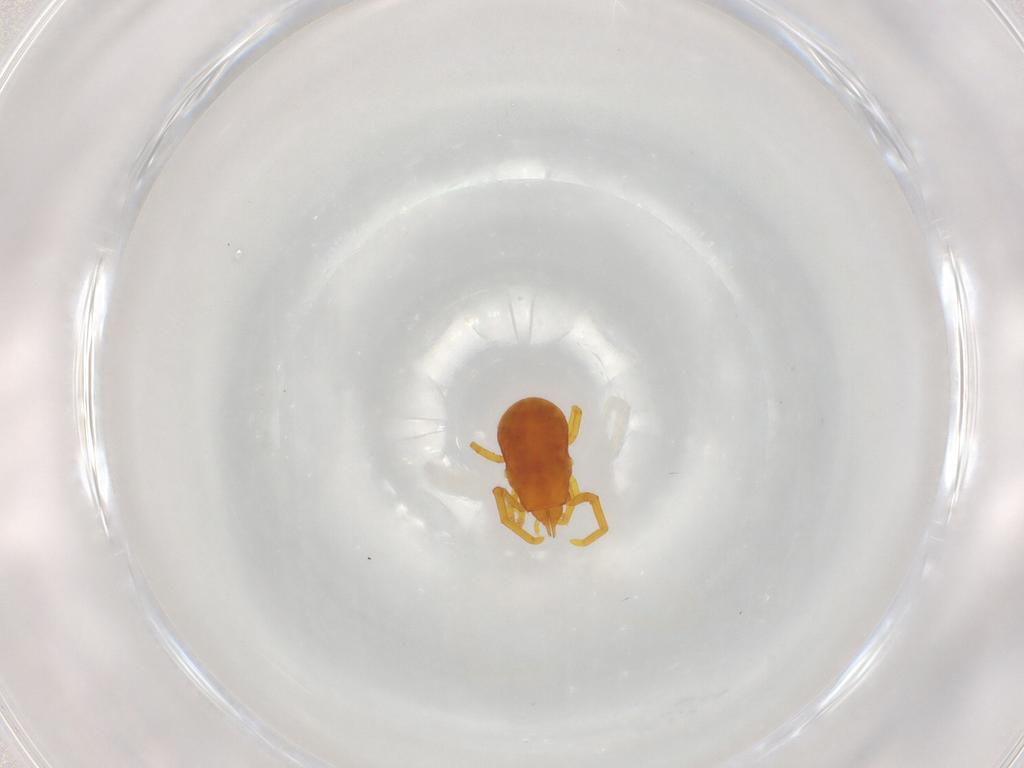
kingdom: Animalia
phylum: Arthropoda
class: Arachnida
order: Trombidiformes
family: Labidostommidae
